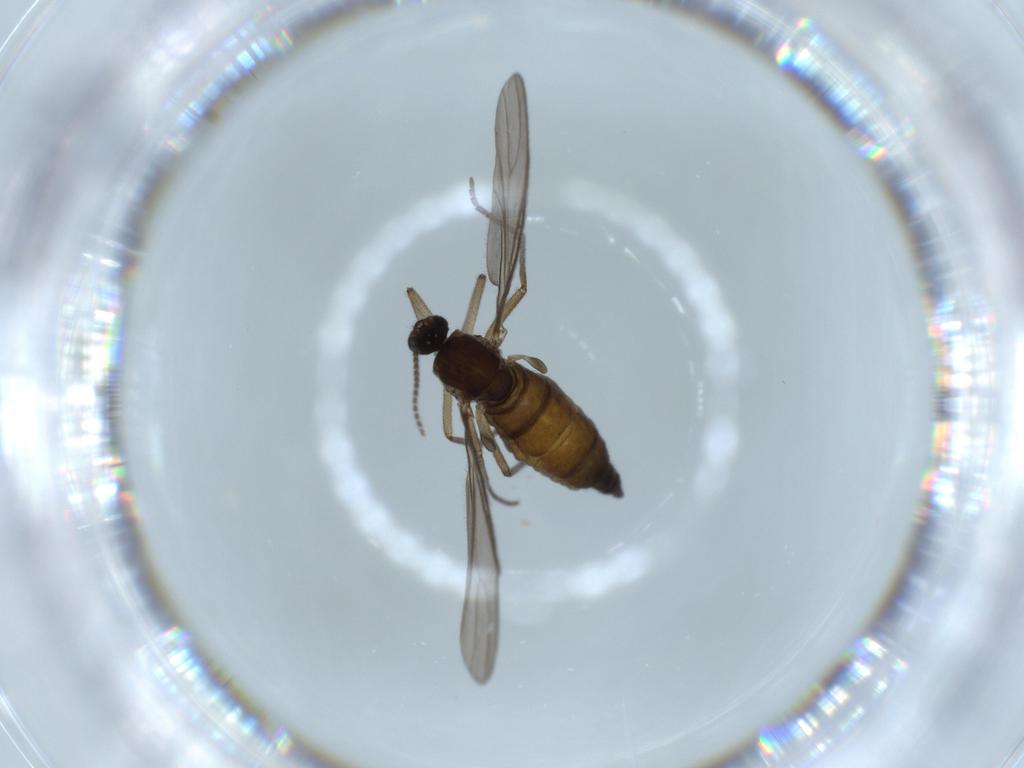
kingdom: Animalia
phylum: Arthropoda
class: Insecta
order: Diptera
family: Sciaridae
